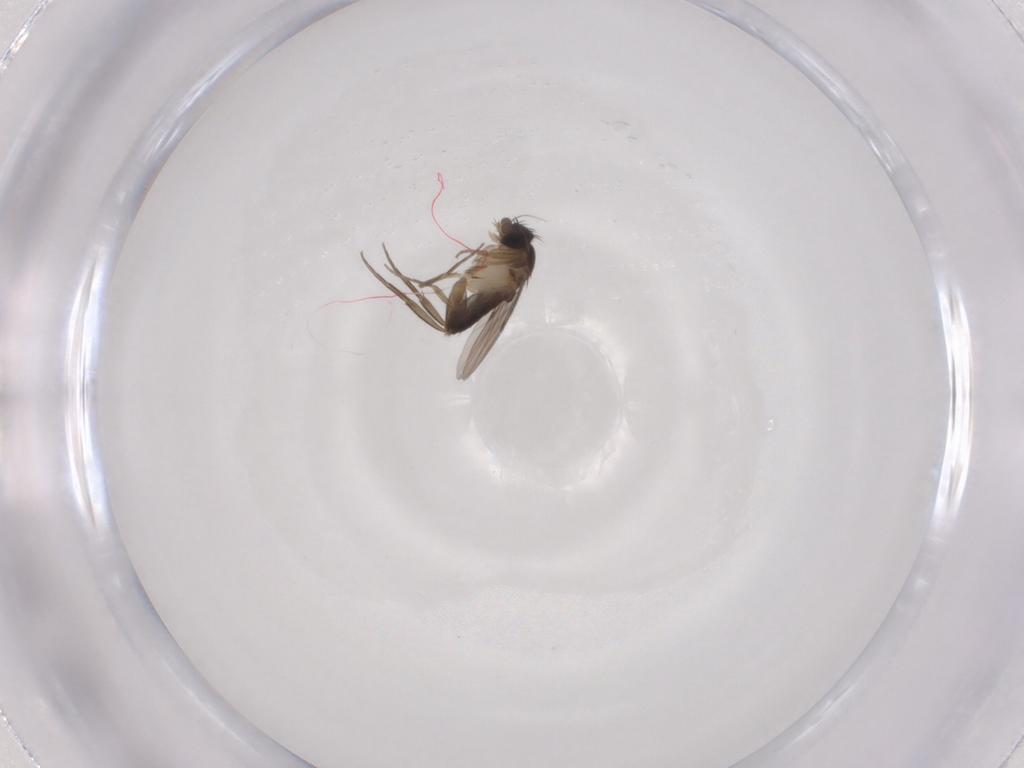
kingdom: Animalia
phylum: Arthropoda
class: Insecta
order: Diptera
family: Phoridae
